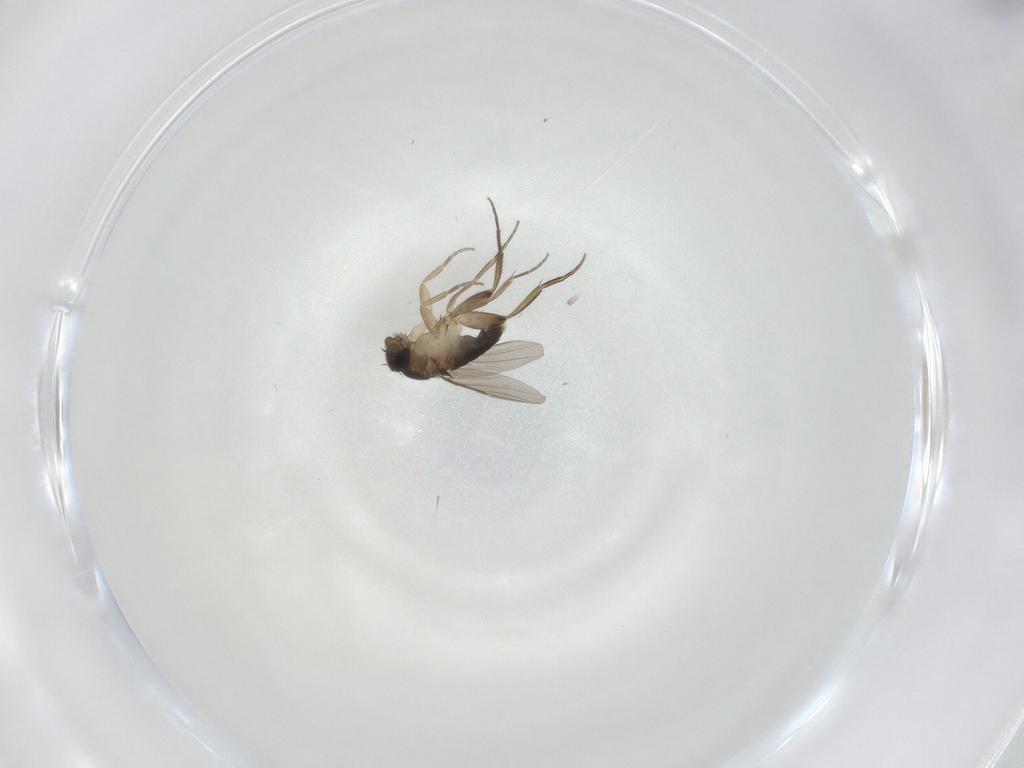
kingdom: Animalia
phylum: Arthropoda
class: Insecta
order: Diptera
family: Phoridae
